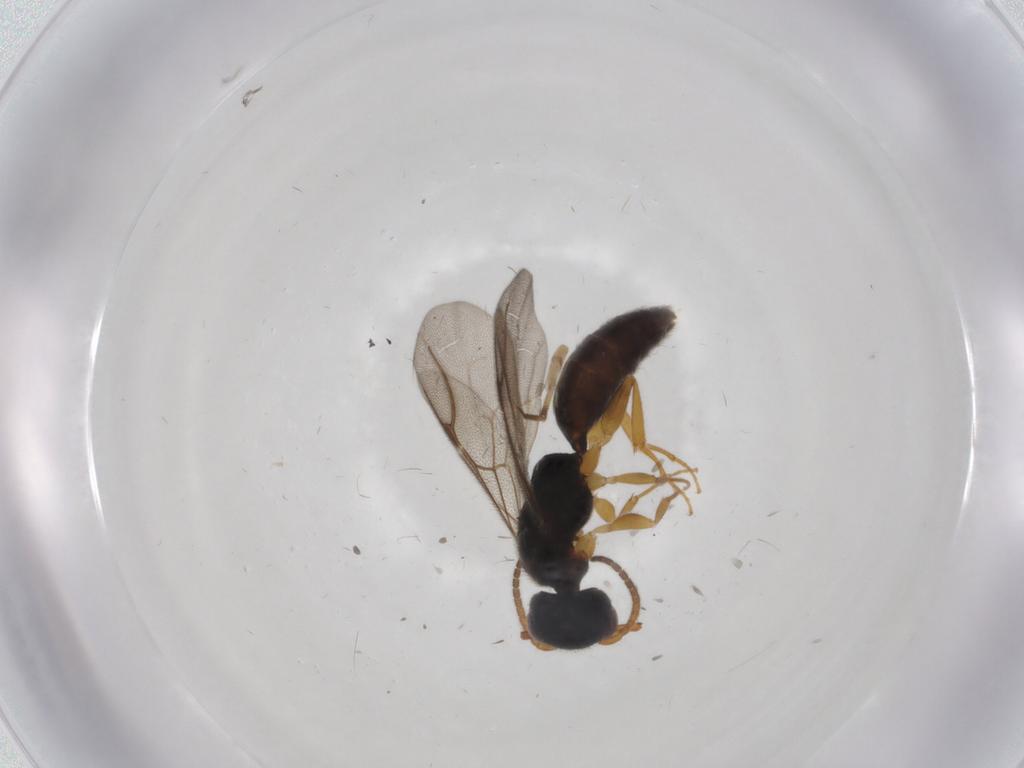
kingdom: Animalia
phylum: Arthropoda
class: Insecta
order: Hymenoptera
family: Bethylidae
